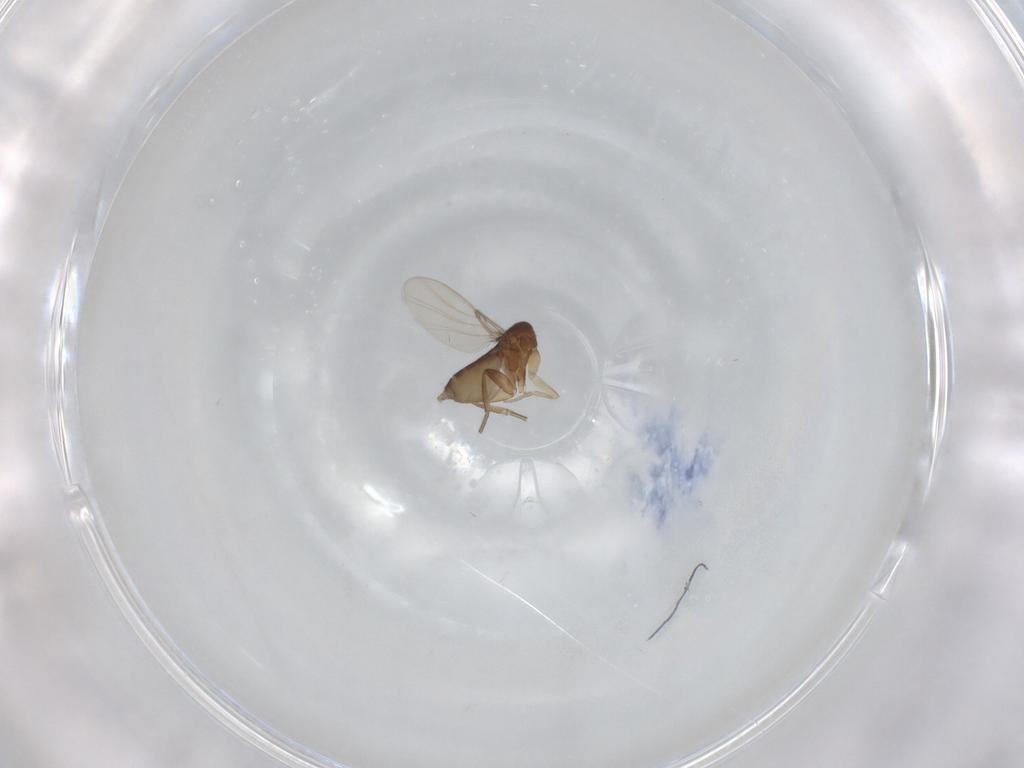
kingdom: Animalia
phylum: Arthropoda
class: Insecta
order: Diptera
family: Phoridae
